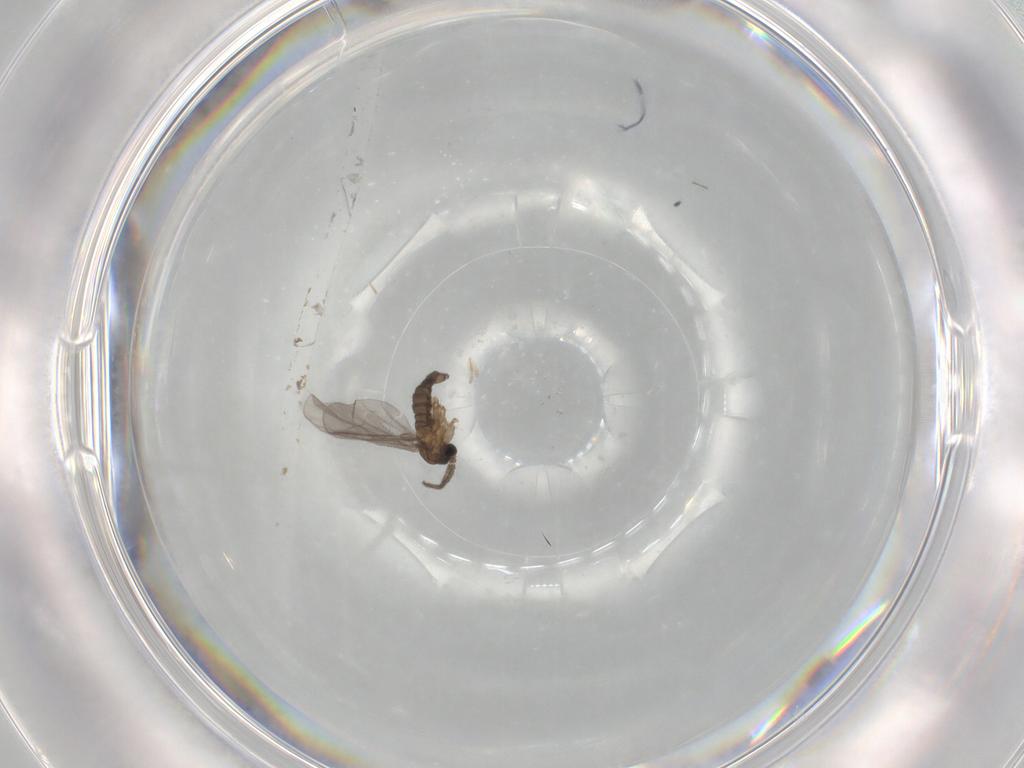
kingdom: Animalia
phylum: Arthropoda
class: Insecta
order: Diptera
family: Sciaridae
